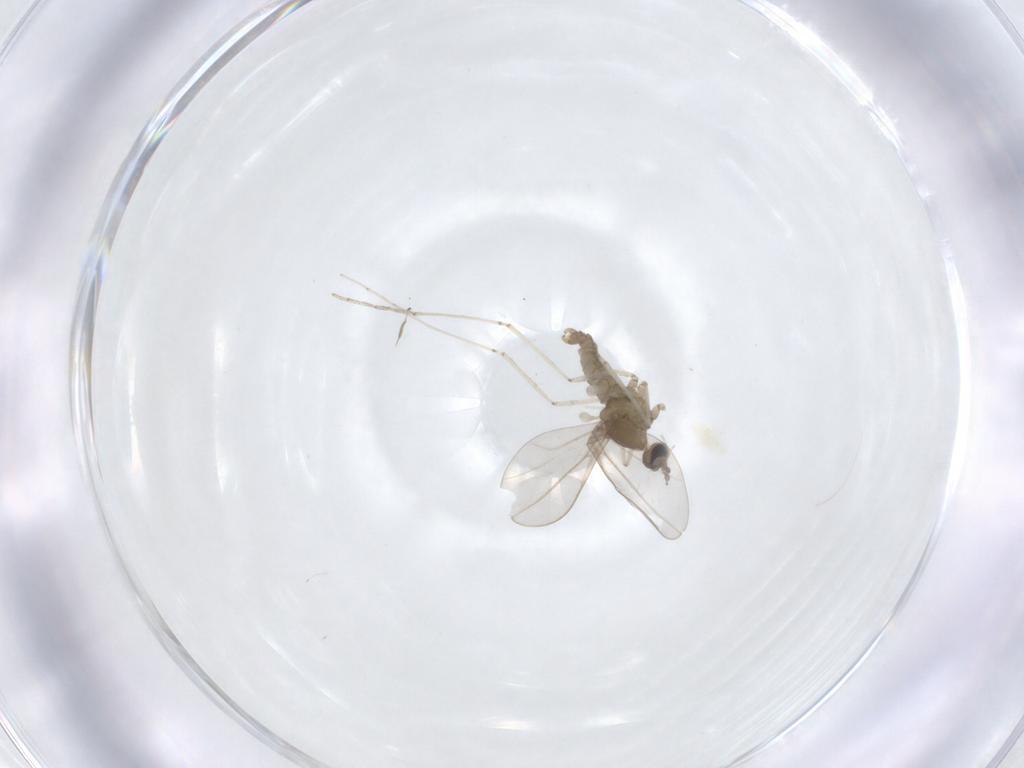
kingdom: Animalia
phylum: Arthropoda
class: Insecta
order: Diptera
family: Cecidomyiidae
